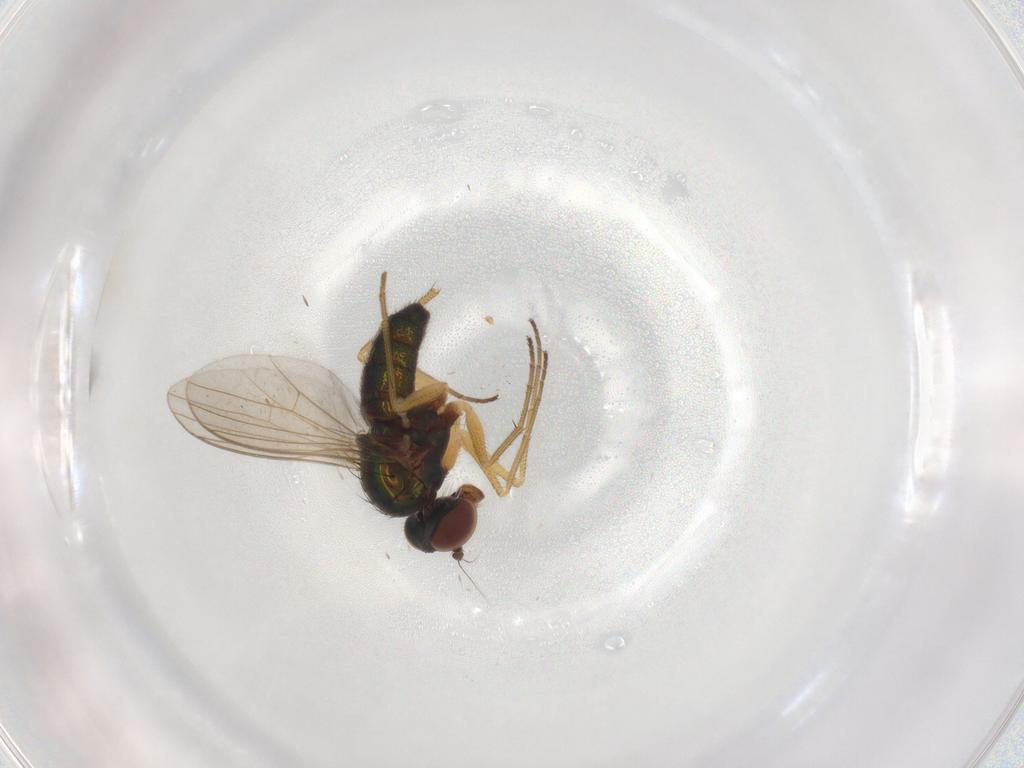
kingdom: Animalia
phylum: Arthropoda
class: Insecta
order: Diptera
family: Dolichopodidae
